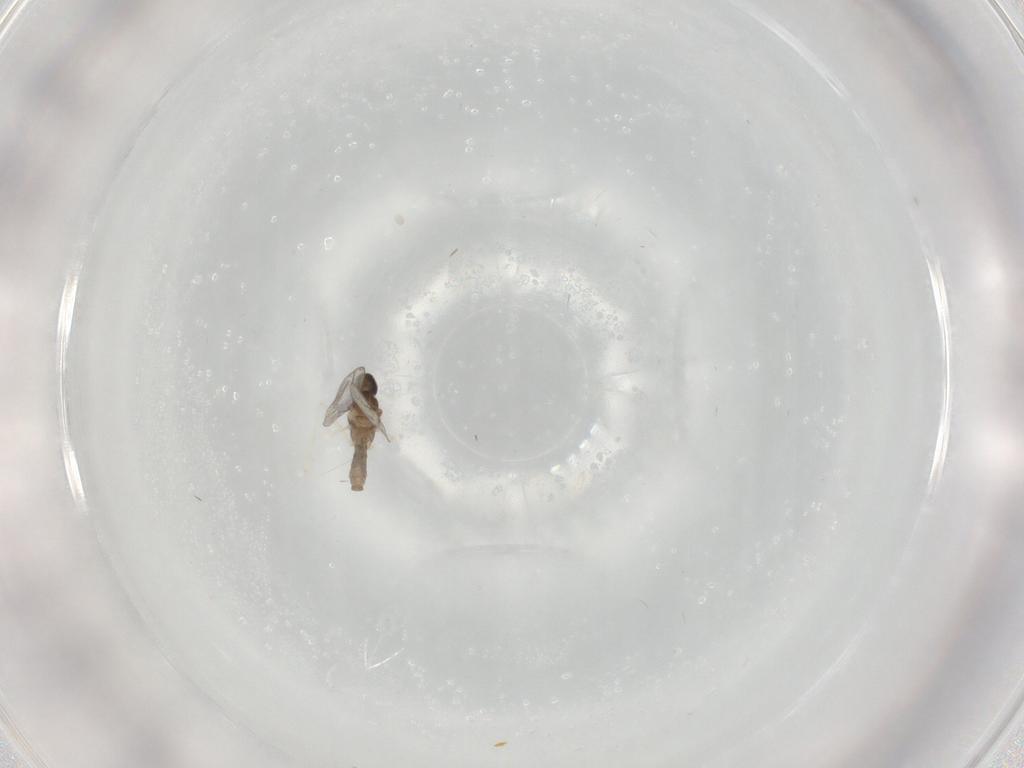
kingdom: Animalia
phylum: Arthropoda
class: Insecta
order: Diptera
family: Cecidomyiidae
